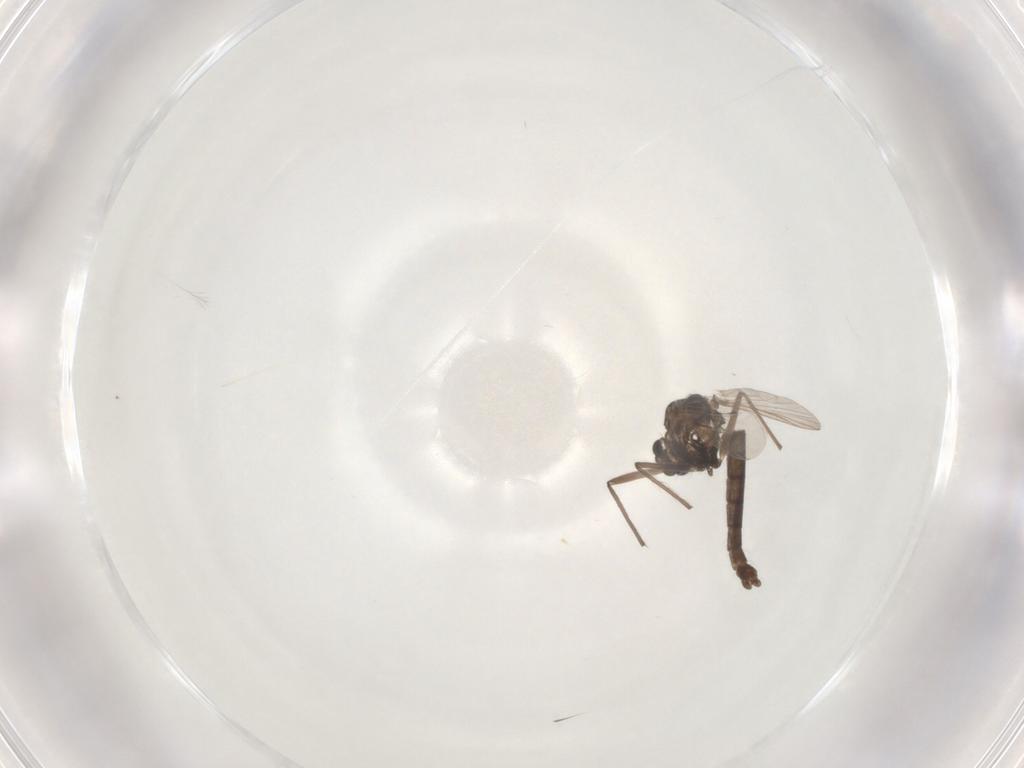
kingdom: Animalia
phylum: Arthropoda
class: Insecta
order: Diptera
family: Chironomidae
